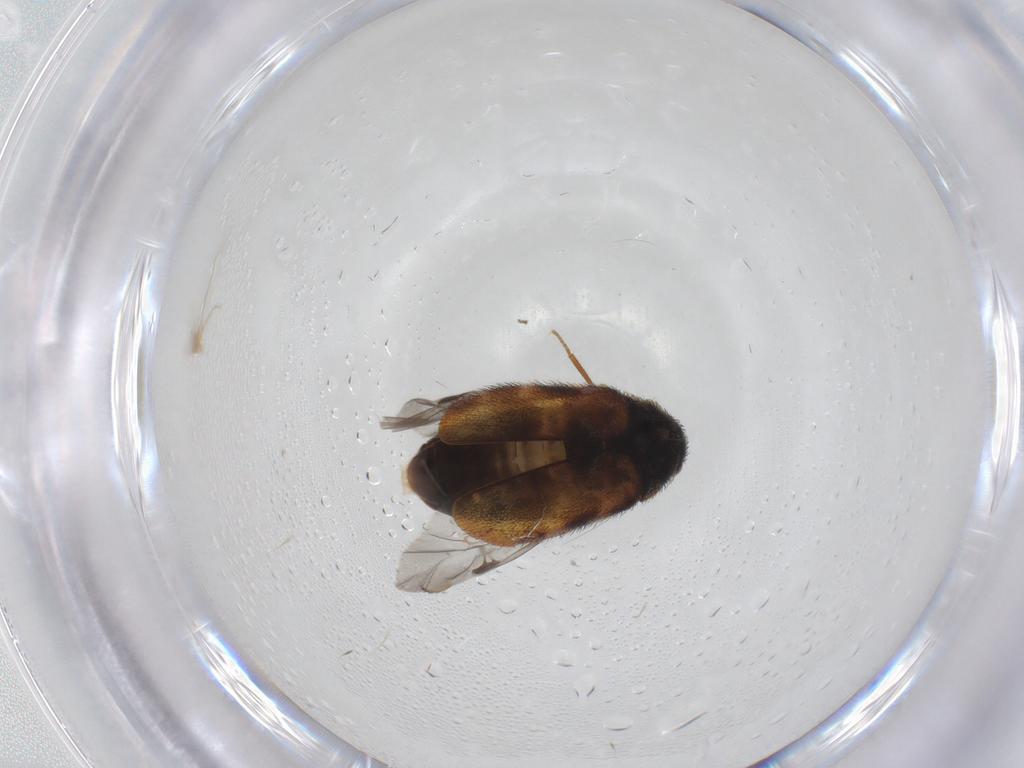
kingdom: Animalia
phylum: Arthropoda
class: Insecta
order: Coleoptera
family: Dermestidae
